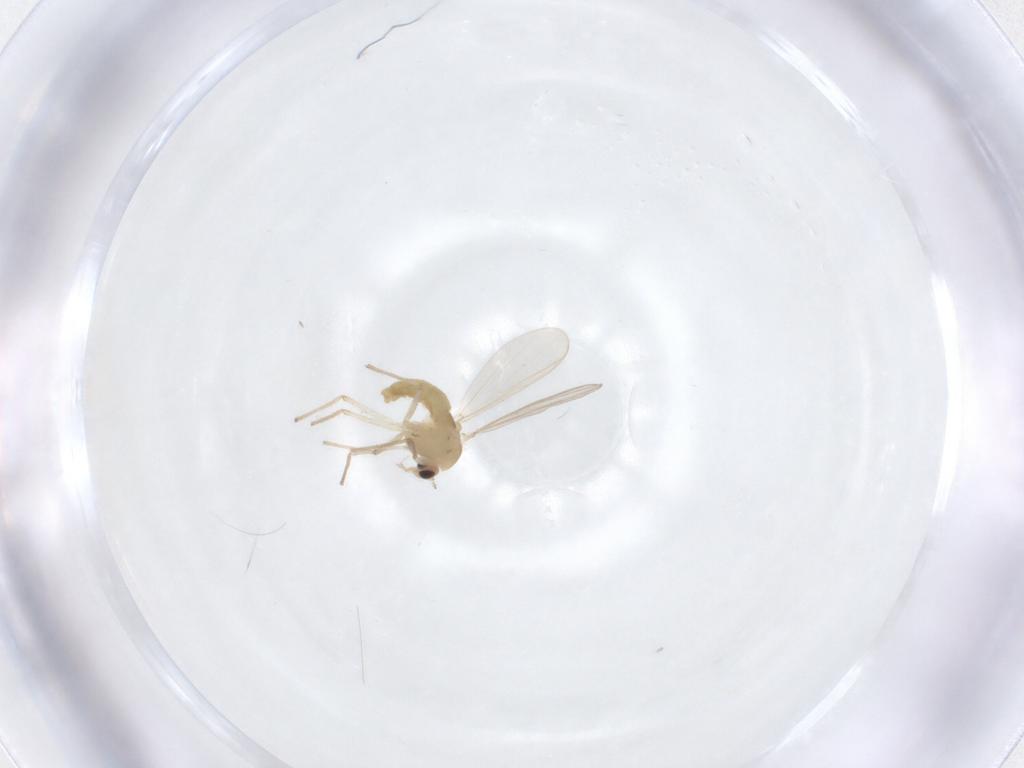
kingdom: Animalia
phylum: Arthropoda
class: Insecta
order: Diptera
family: Chironomidae
